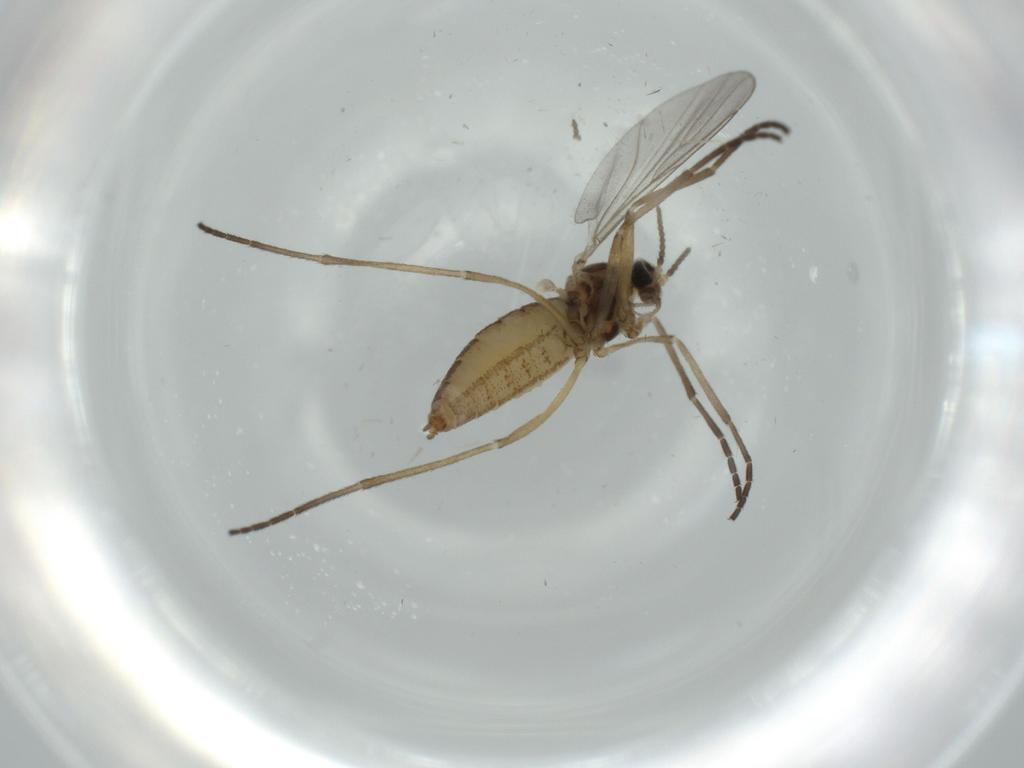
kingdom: Animalia
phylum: Arthropoda
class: Insecta
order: Diptera
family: Cecidomyiidae
